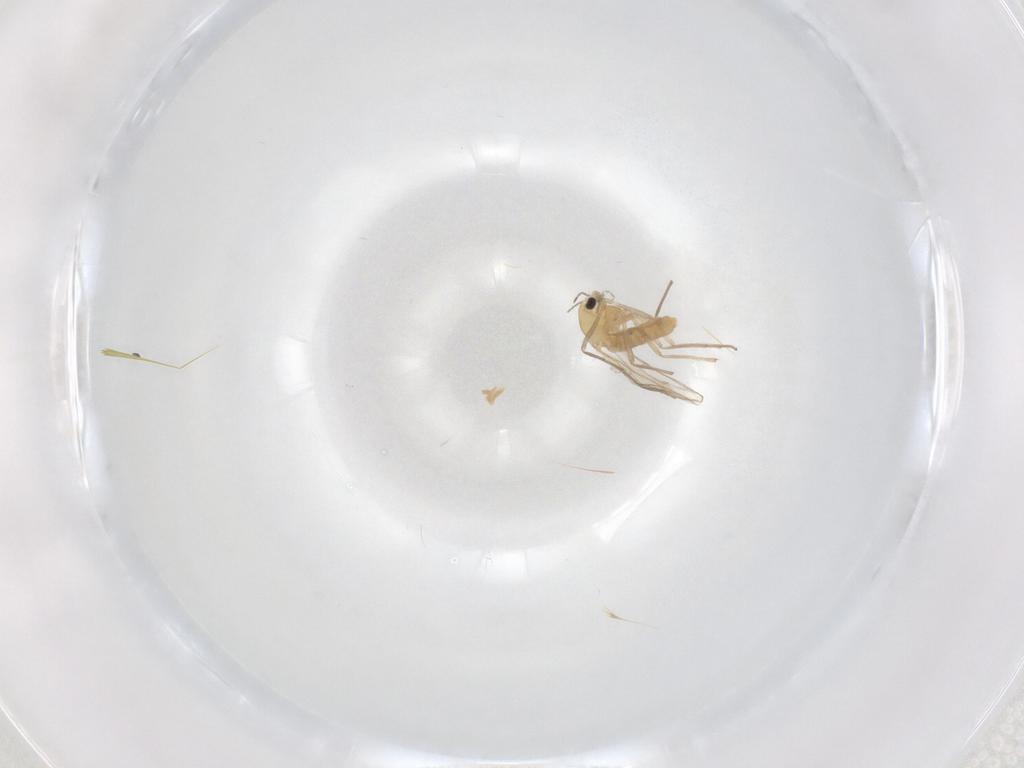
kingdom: Animalia
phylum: Arthropoda
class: Insecta
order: Diptera
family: Chironomidae
